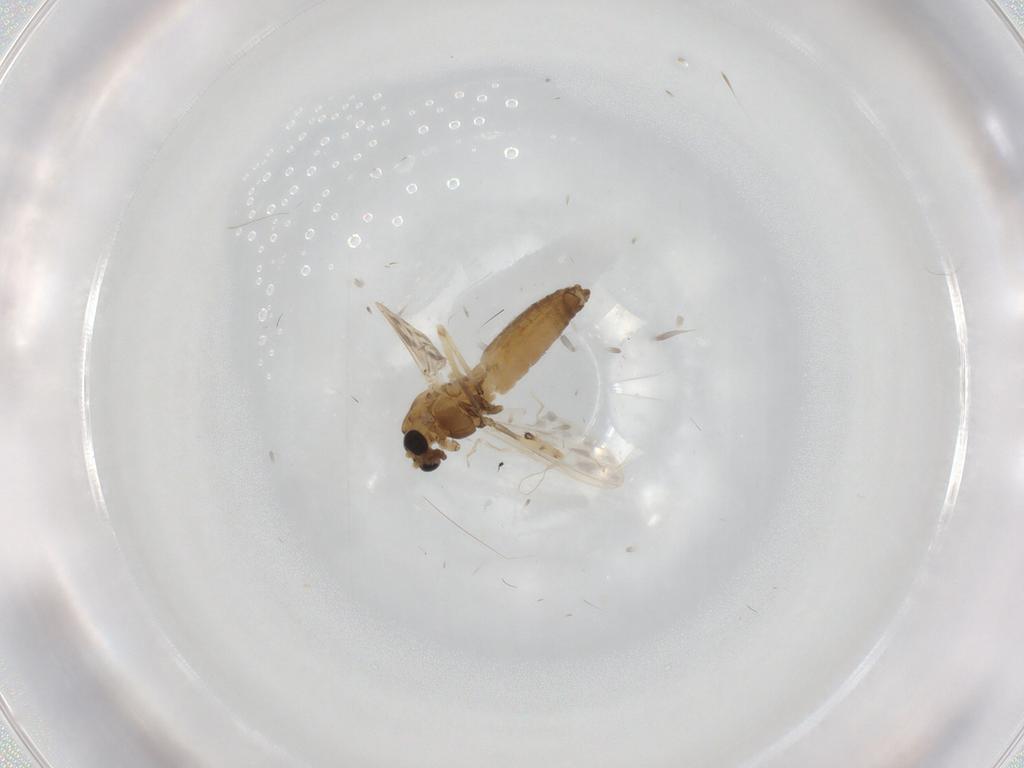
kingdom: Animalia
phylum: Arthropoda
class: Insecta
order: Diptera
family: Chironomidae
